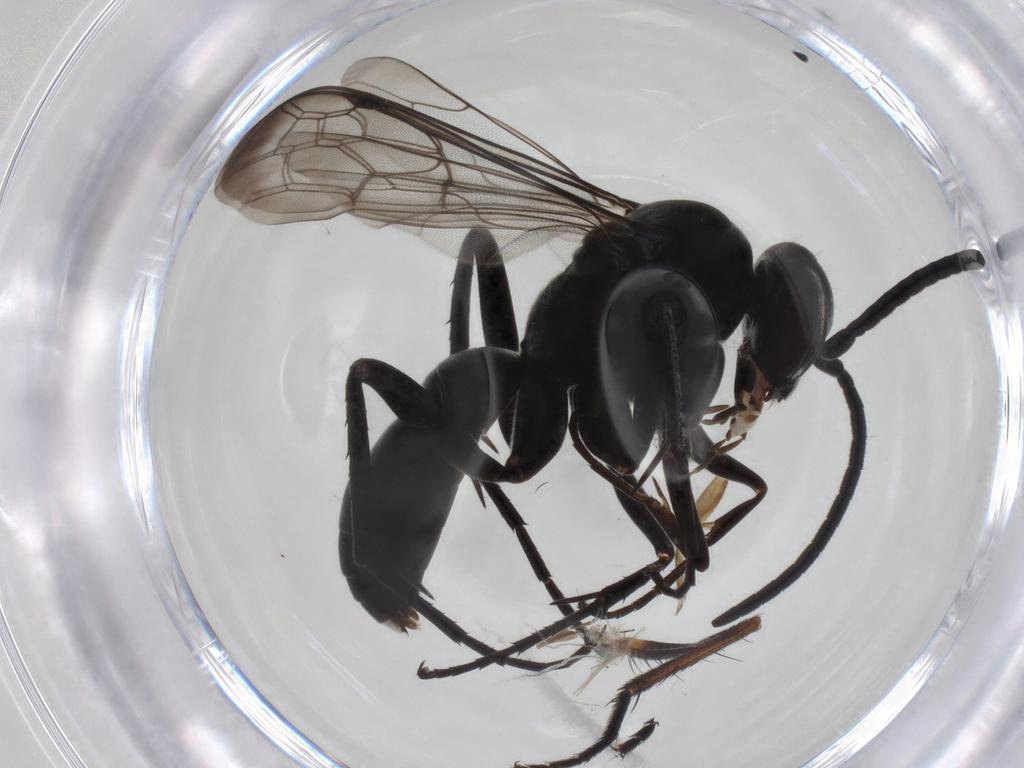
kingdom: Animalia
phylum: Arthropoda
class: Insecta
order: Hymenoptera
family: Pompilidae
